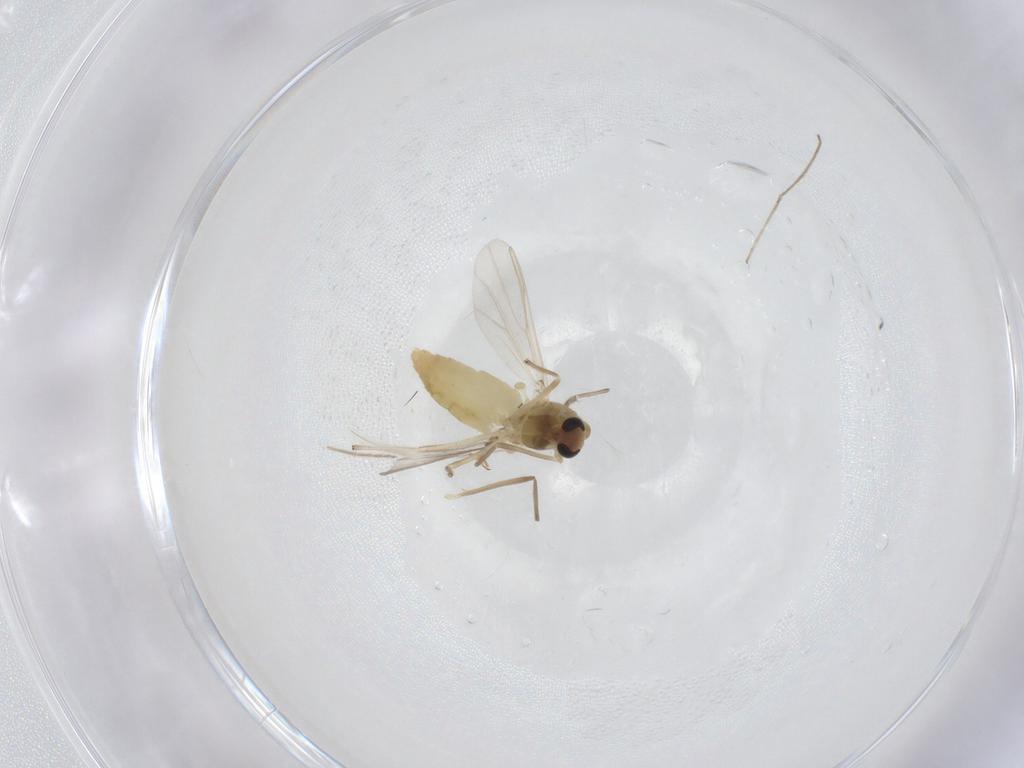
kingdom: Animalia
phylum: Arthropoda
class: Insecta
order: Diptera
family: Chironomidae
